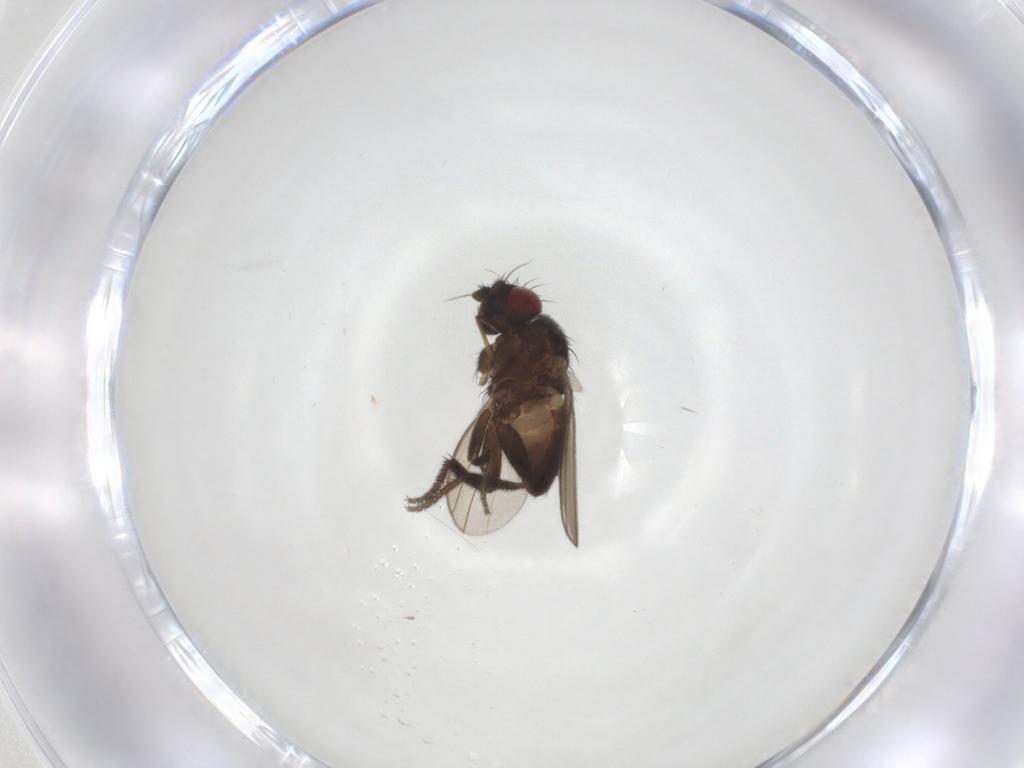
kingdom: Animalia
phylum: Arthropoda
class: Insecta
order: Diptera
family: Milichiidae
